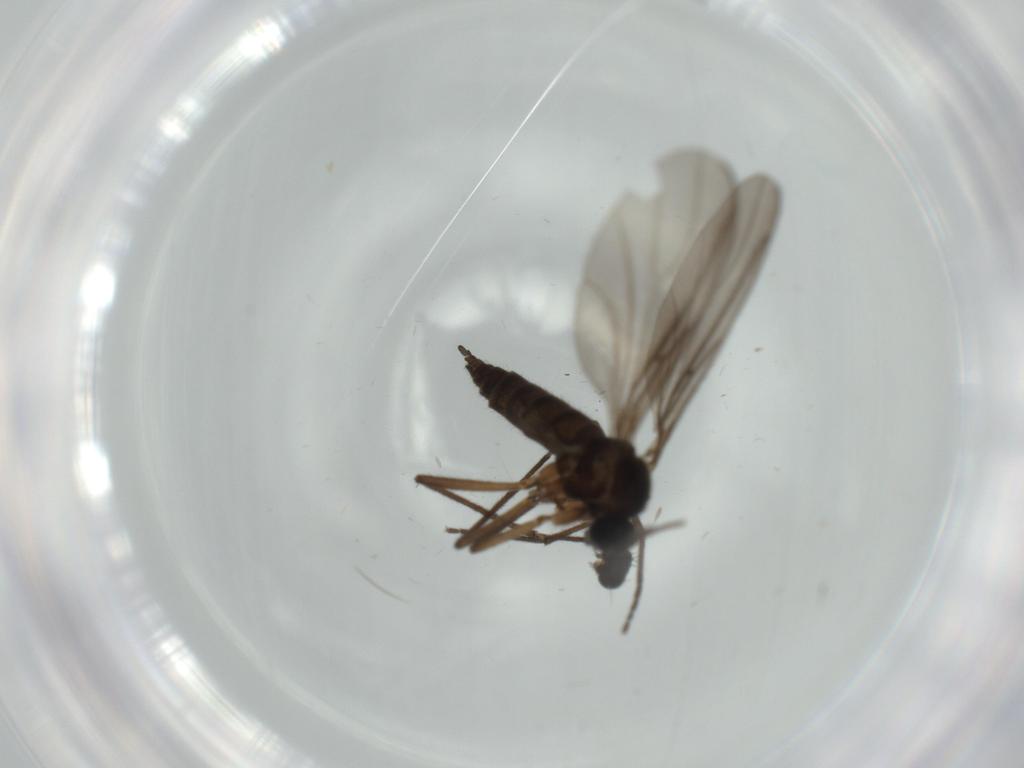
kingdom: Animalia
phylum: Arthropoda
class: Insecta
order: Diptera
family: Sciaridae
